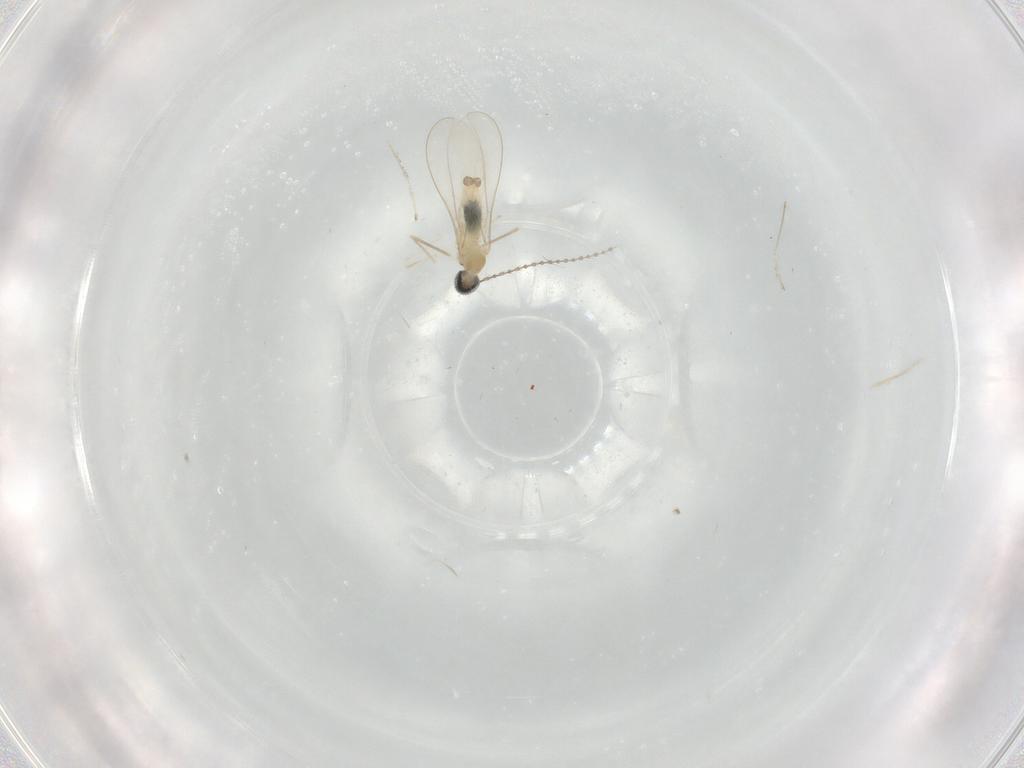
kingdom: Animalia
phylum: Arthropoda
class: Insecta
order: Diptera
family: Cecidomyiidae
